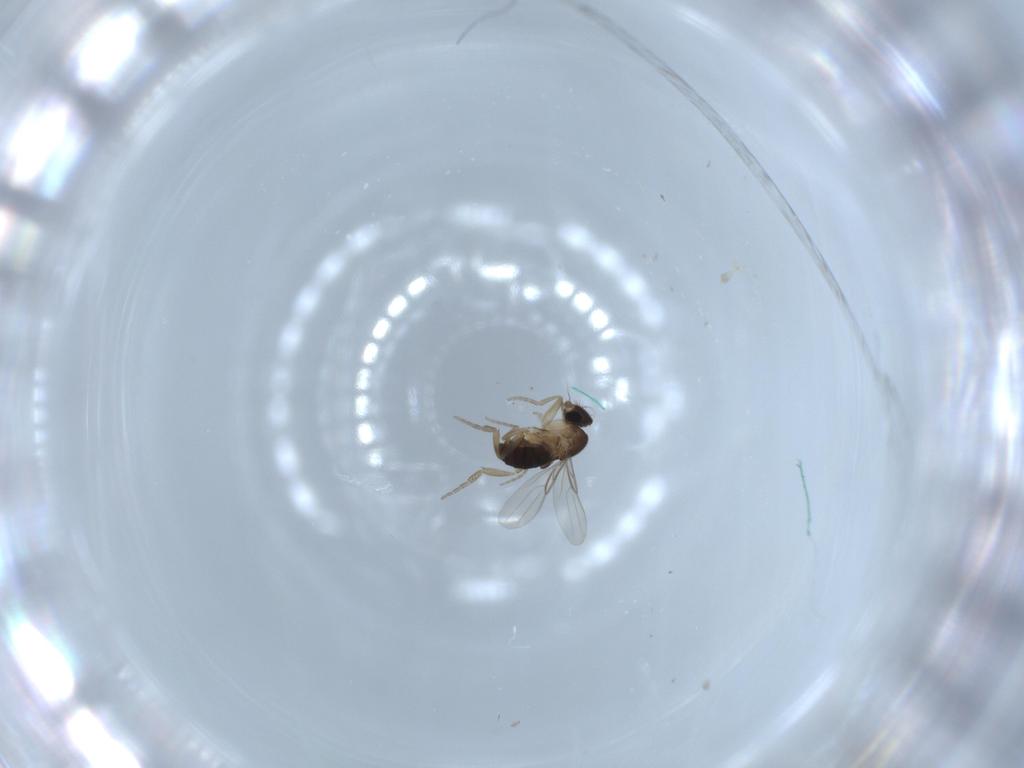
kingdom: Animalia
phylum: Arthropoda
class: Insecta
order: Diptera
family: Phoridae
